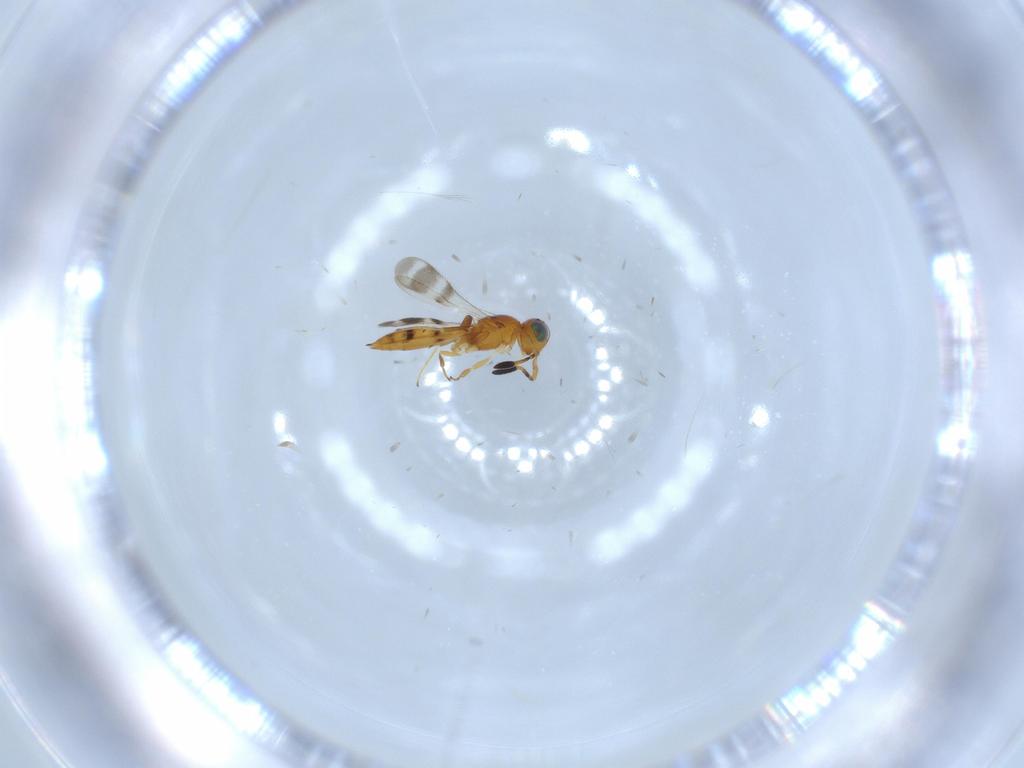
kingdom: Animalia
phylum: Arthropoda
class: Insecta
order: Hymenoptera
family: Scelionidae
